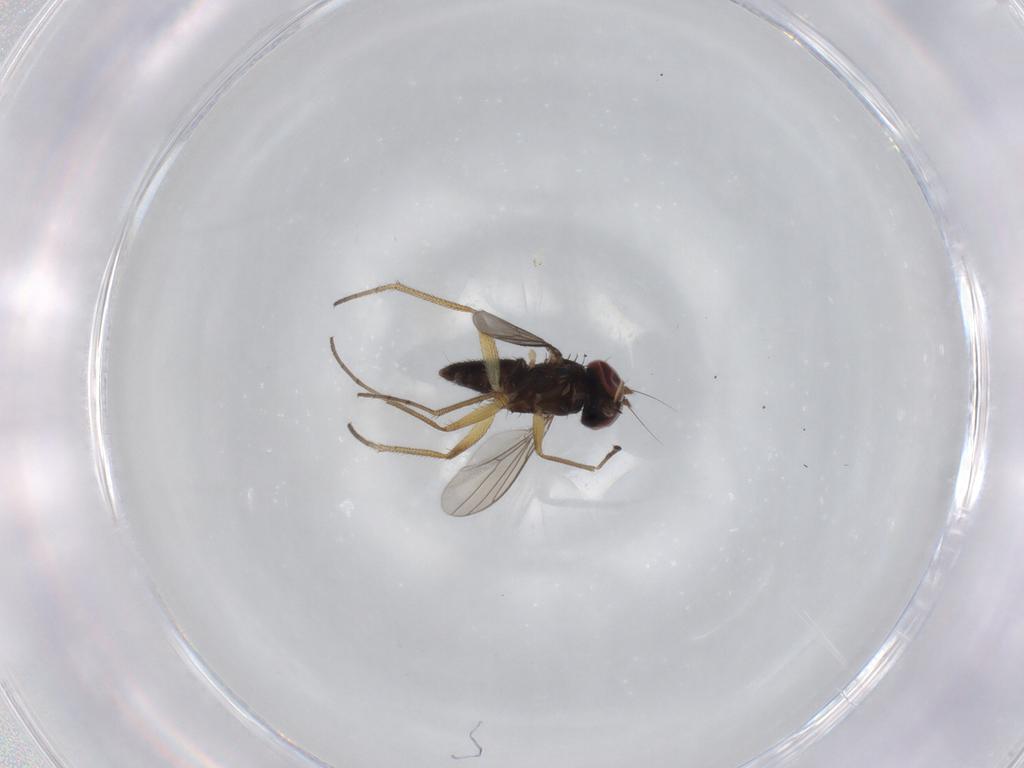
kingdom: Animalia
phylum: Arthropoda
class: Insecta
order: Diptera
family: Dolichopodidae
